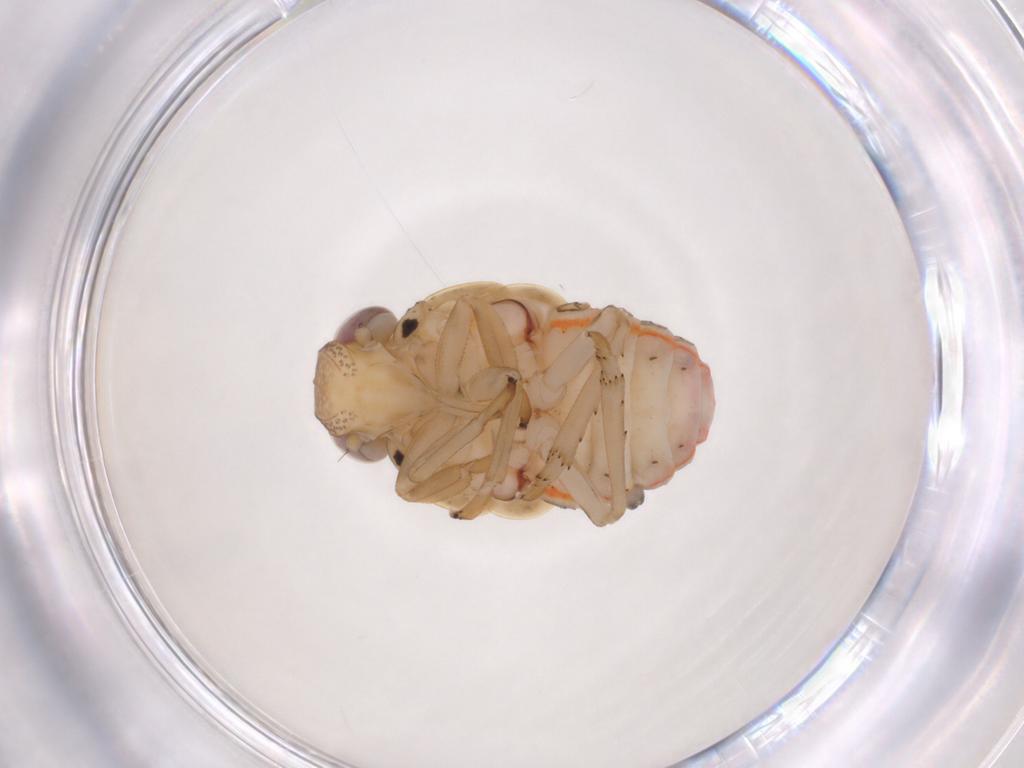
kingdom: Animalia
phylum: Arthropoda
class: Insecta
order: Hemiptera
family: Issidae
